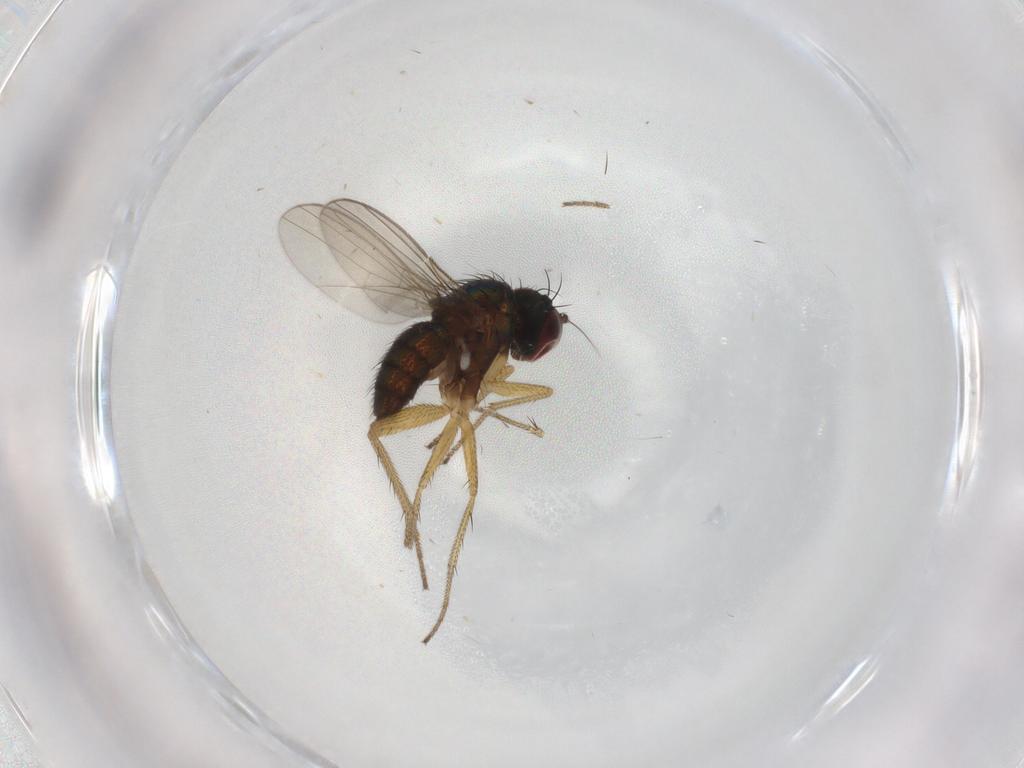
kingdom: Animalia
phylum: Arthropoda
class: Insecta
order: Diptera
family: Dolichopodidae
